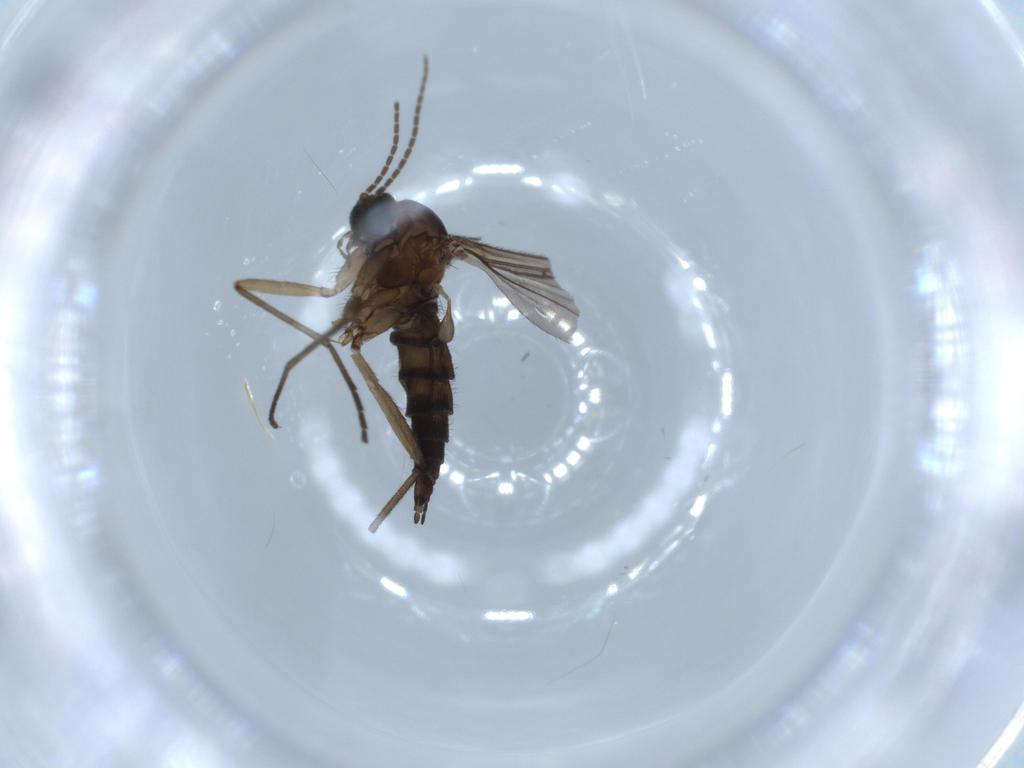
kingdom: Animalia
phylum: Arthropoda
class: Insecta
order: Diptera
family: Sciaridae
